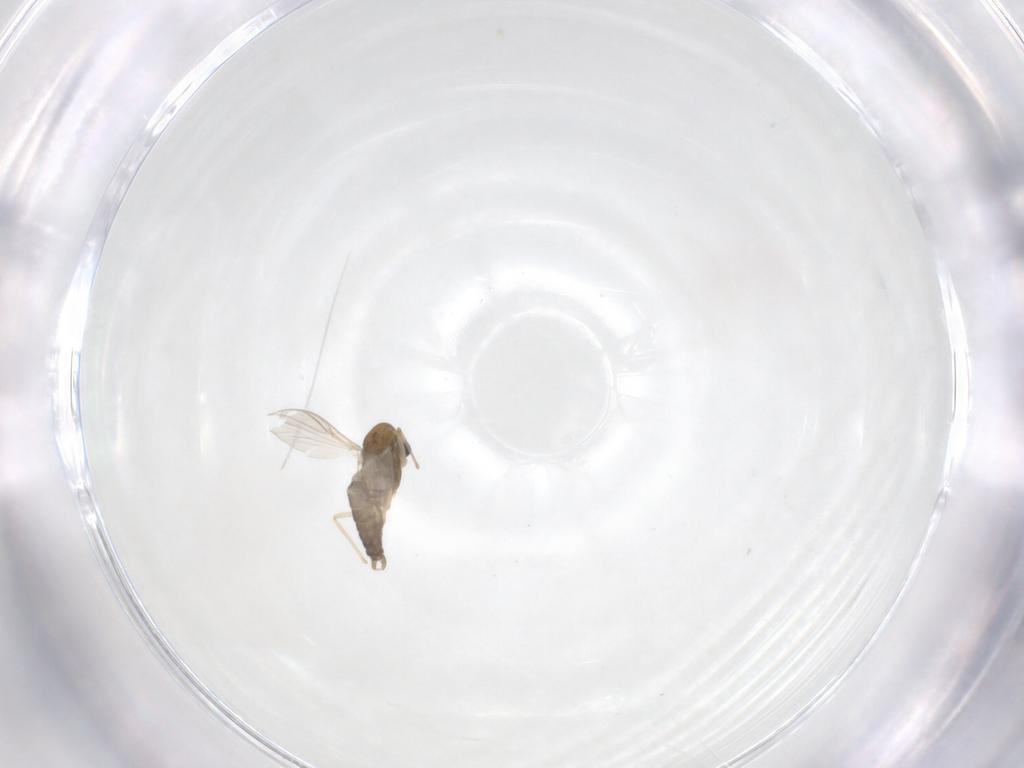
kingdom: Animalia
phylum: Arthropoda
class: Insecta
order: Diptera
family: Chironomidae
